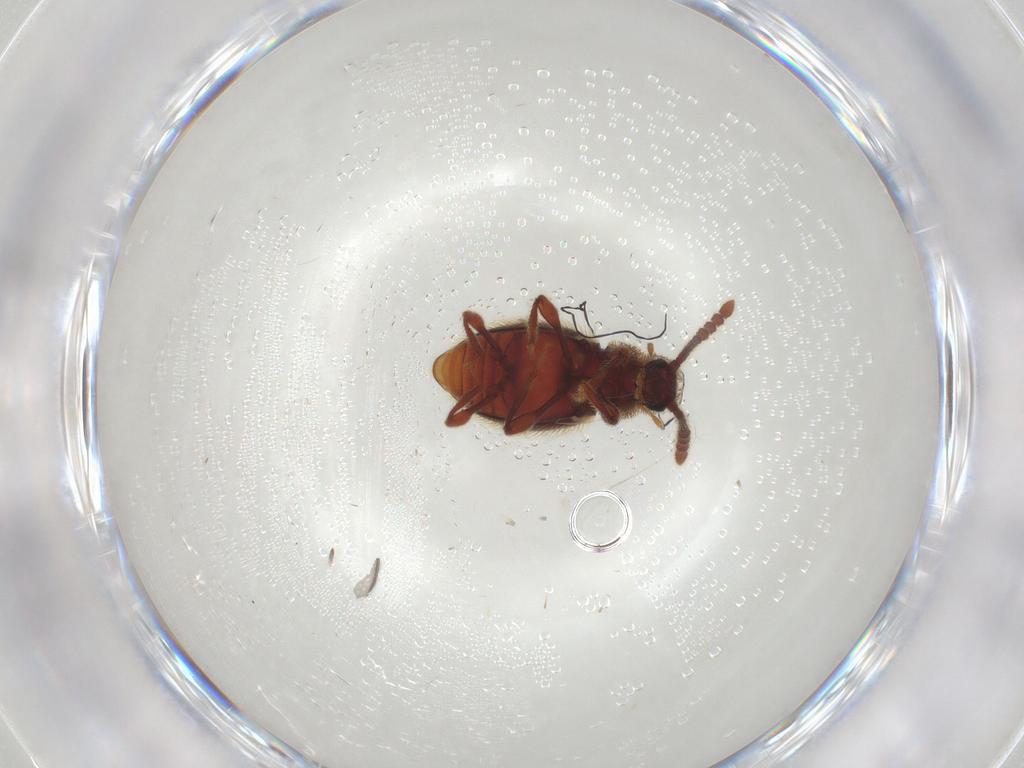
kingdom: Animalia
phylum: Arthropoda
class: Insecta
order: Coleoptera
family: Staphylinidae
